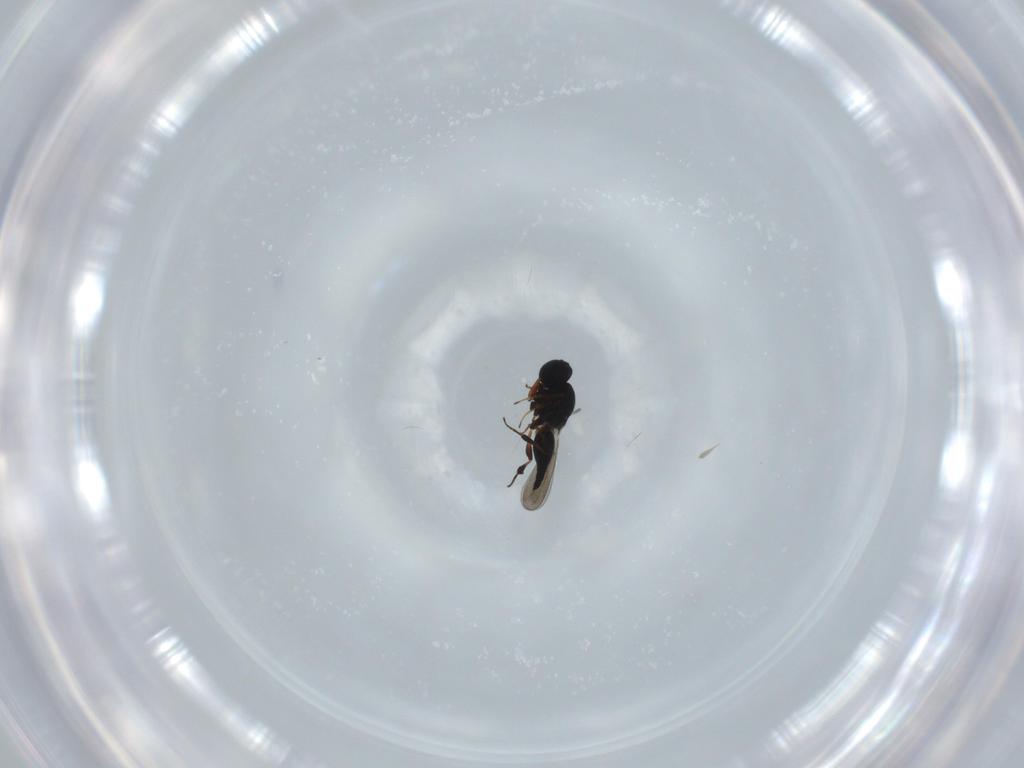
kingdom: Animalia
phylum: Arthropoda
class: Insecta
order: Hymenoptera
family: Platygastridae
